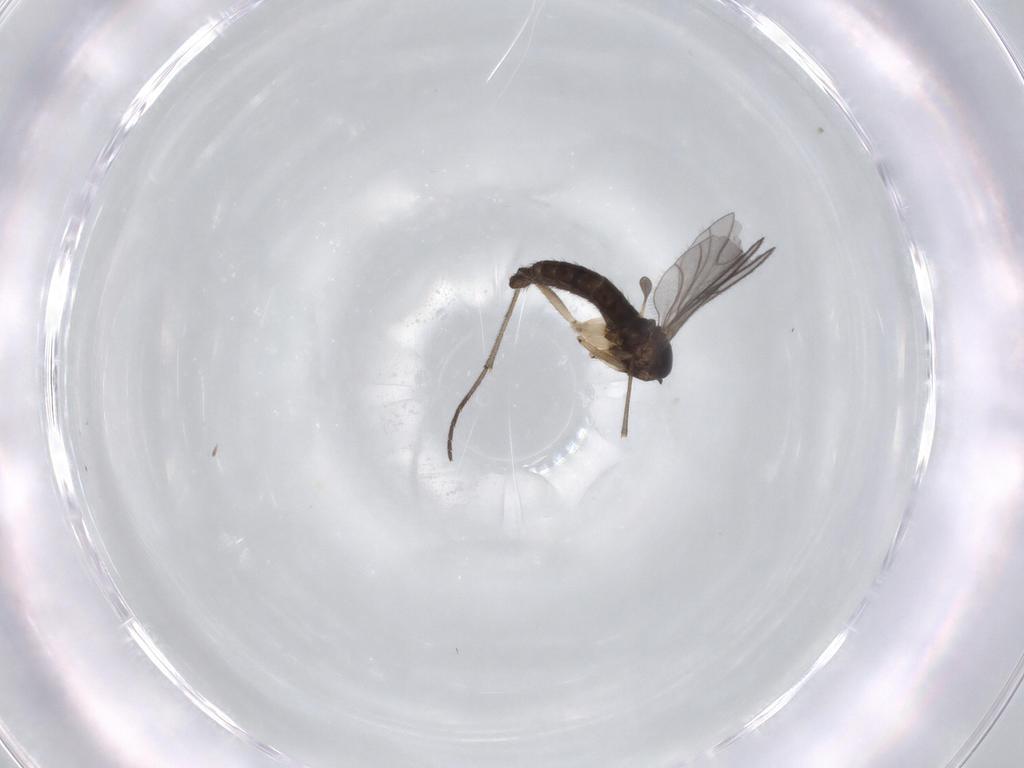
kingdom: Animalia
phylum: Arthropoda
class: Insecta
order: Diptera
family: Sciaridae
